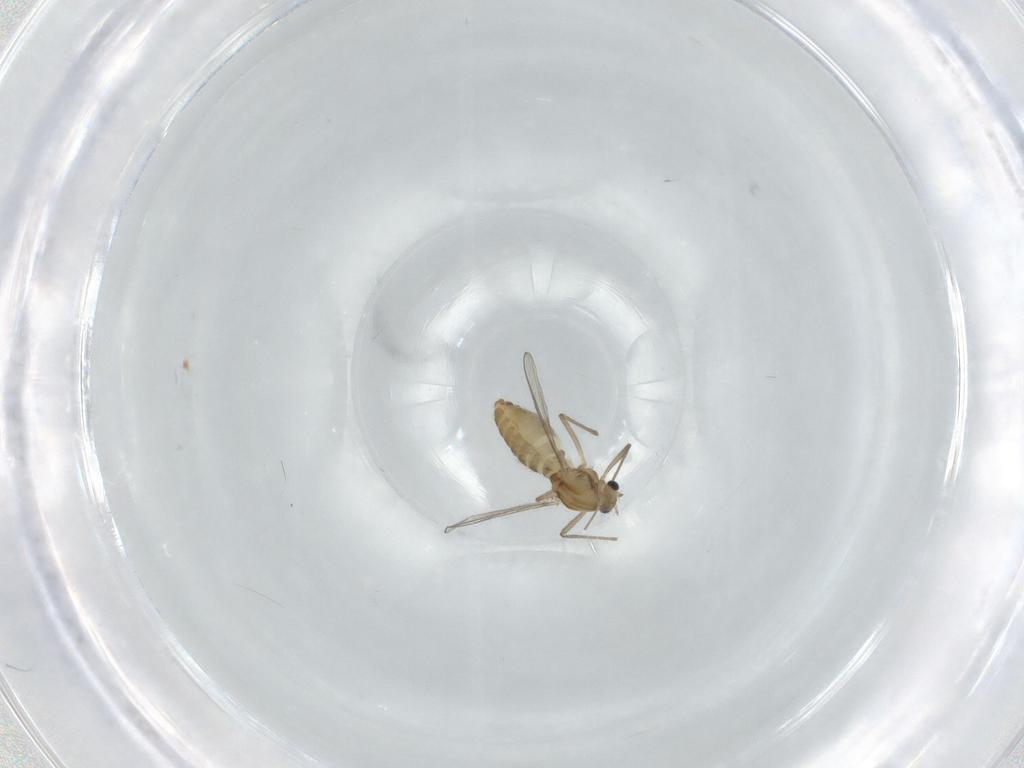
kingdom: Animalia
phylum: Arthropoda
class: Insecta
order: Diptera
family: Chironomidae
